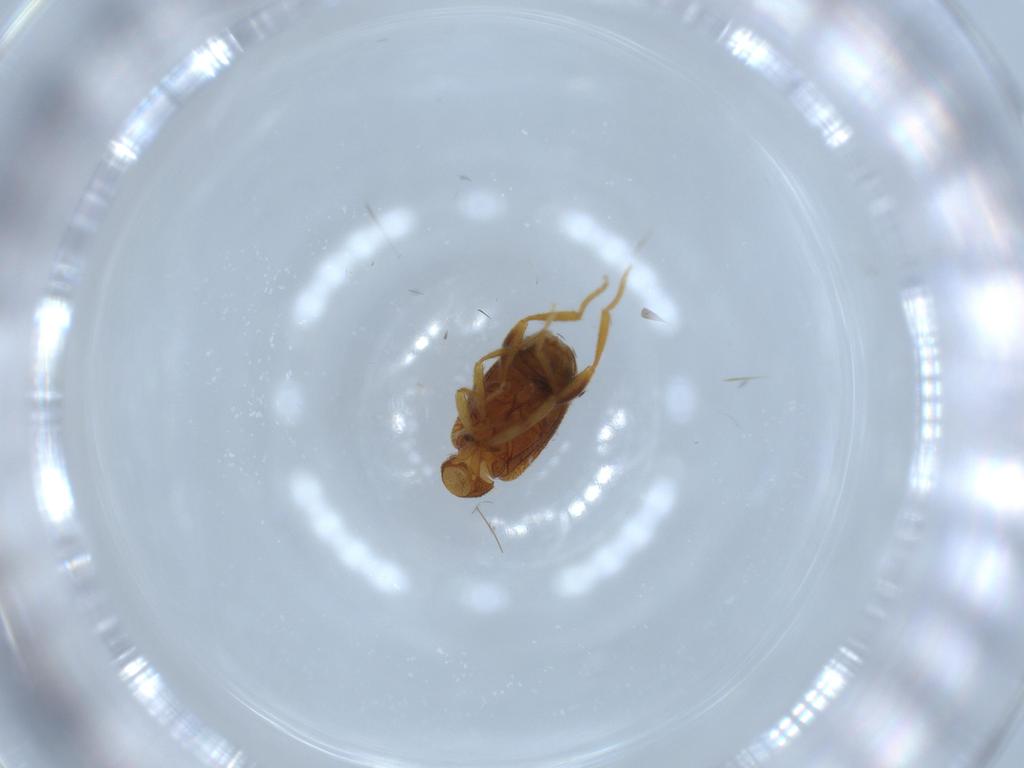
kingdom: Animalia
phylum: Arthropoda
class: Insecta
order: Coleoptera
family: Aderidae
